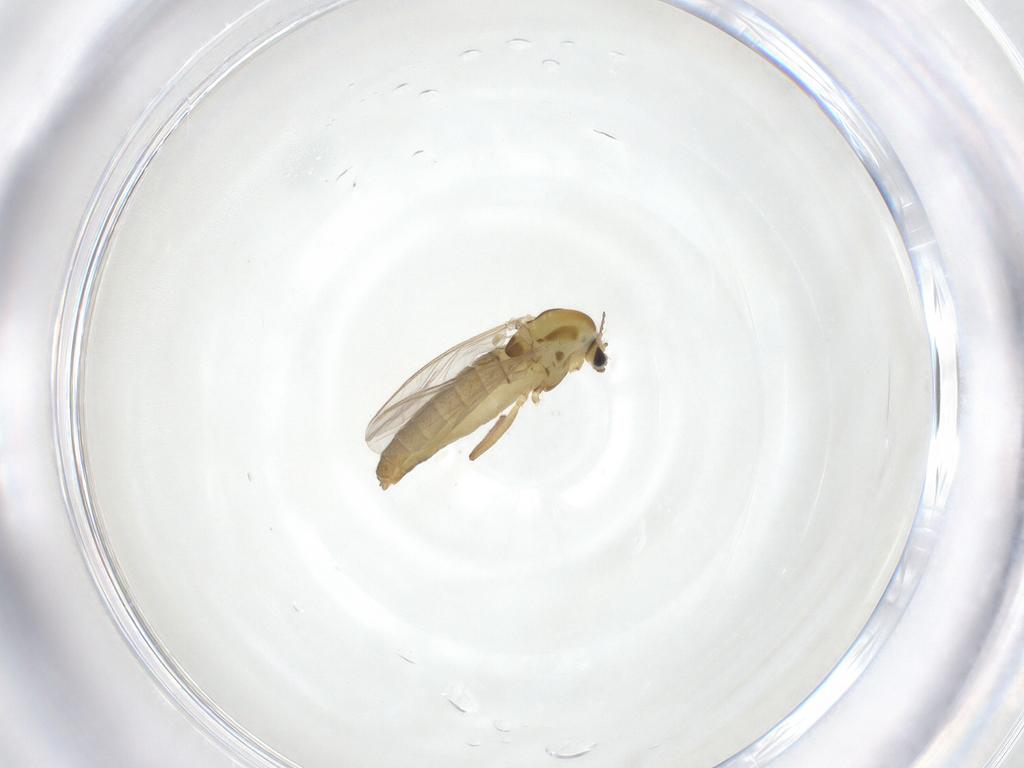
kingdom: Animalia
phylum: Arthropoda
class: Insecta
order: Diptera
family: Chironomidae
